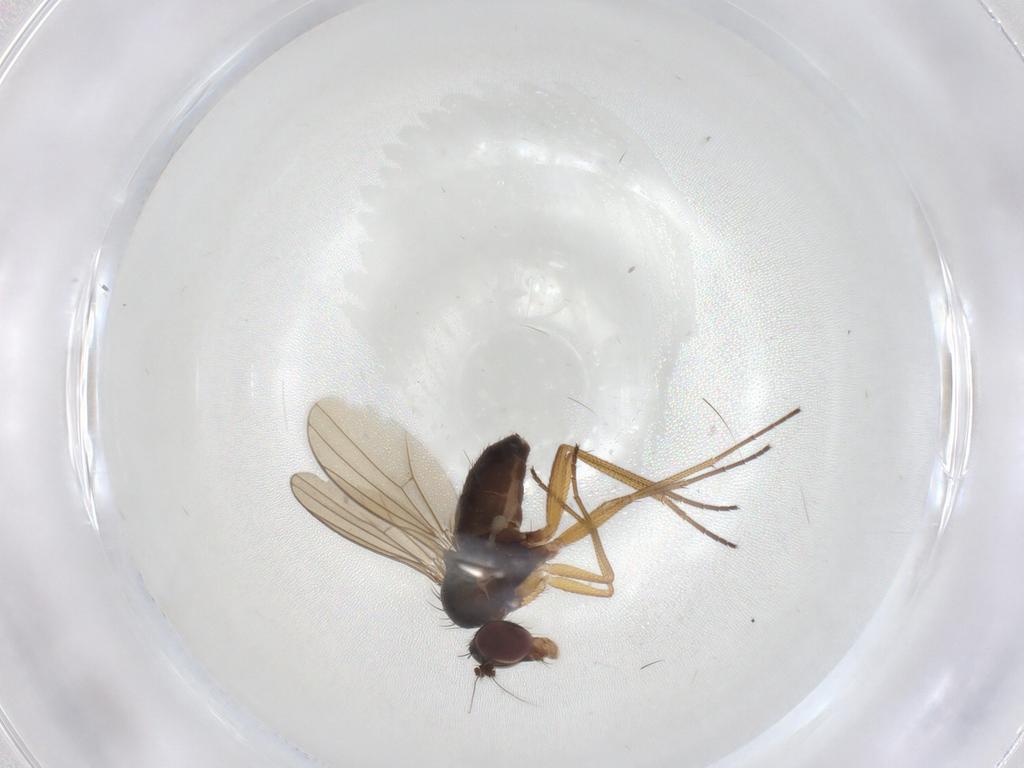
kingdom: Animalia
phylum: Arthropoda
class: Insecta
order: Diptera
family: Dolichopodidae
